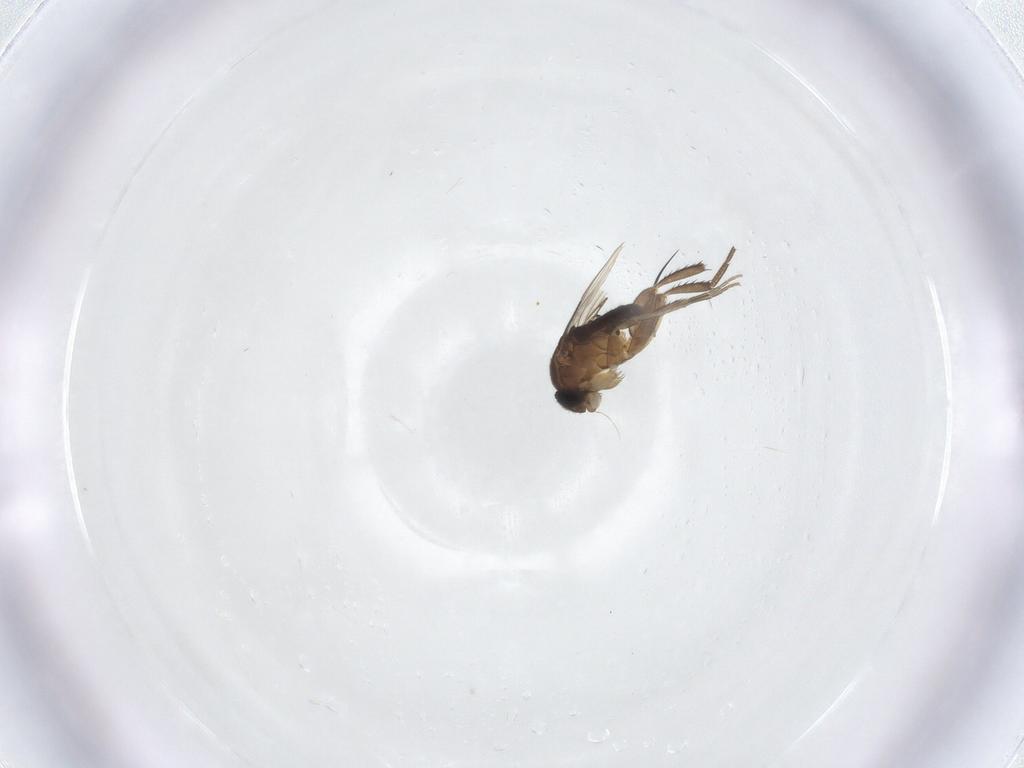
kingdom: Animalia
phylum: Arthropoda
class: Insecta
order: Diptera
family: Phoridae
